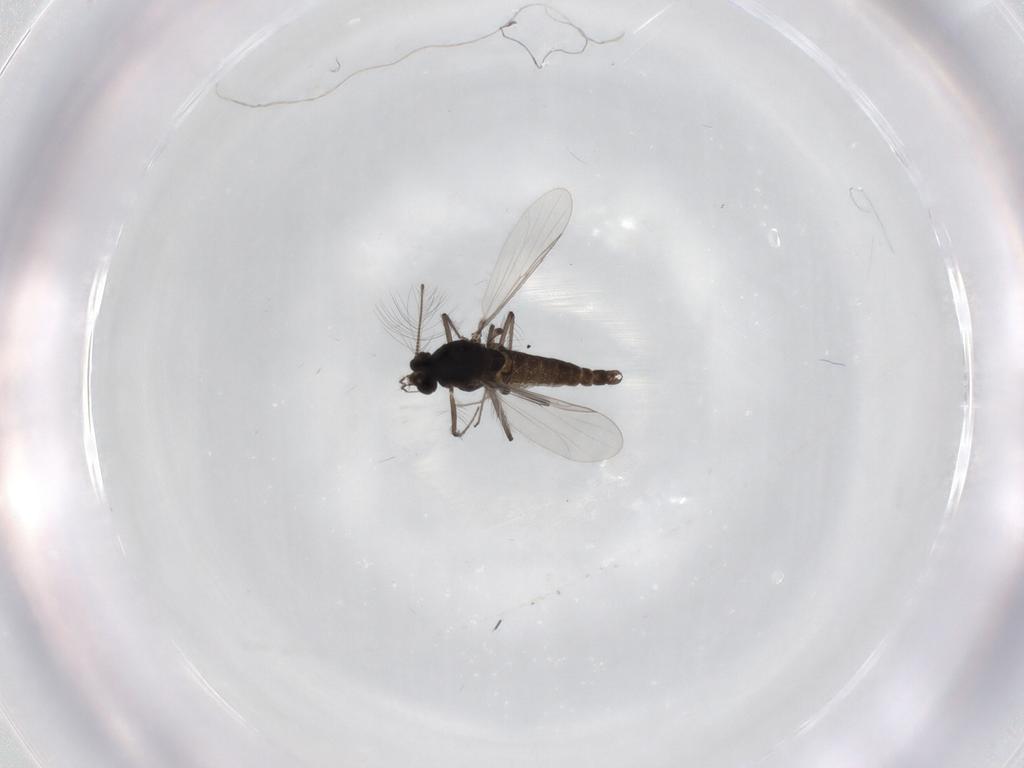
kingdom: Animalia
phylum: Arthropoda
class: Insecta
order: Diptera
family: Chironomidae
